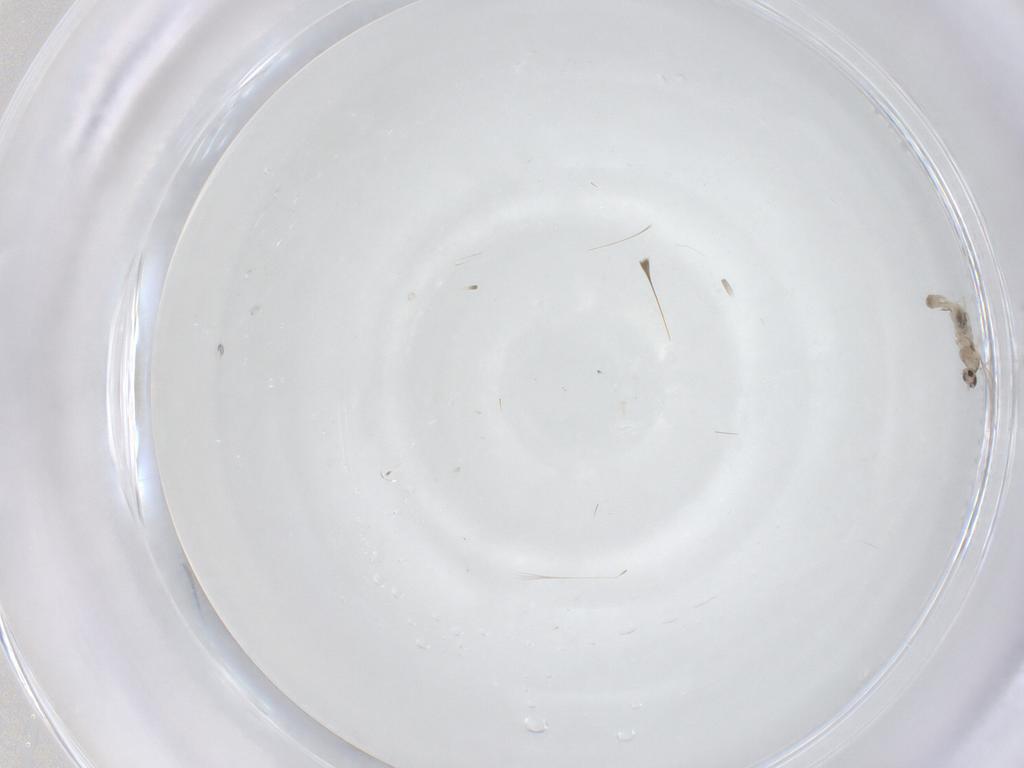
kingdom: Animalia
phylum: Arthropoda
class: Insecta
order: Diptera
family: Cecidomyiidae
